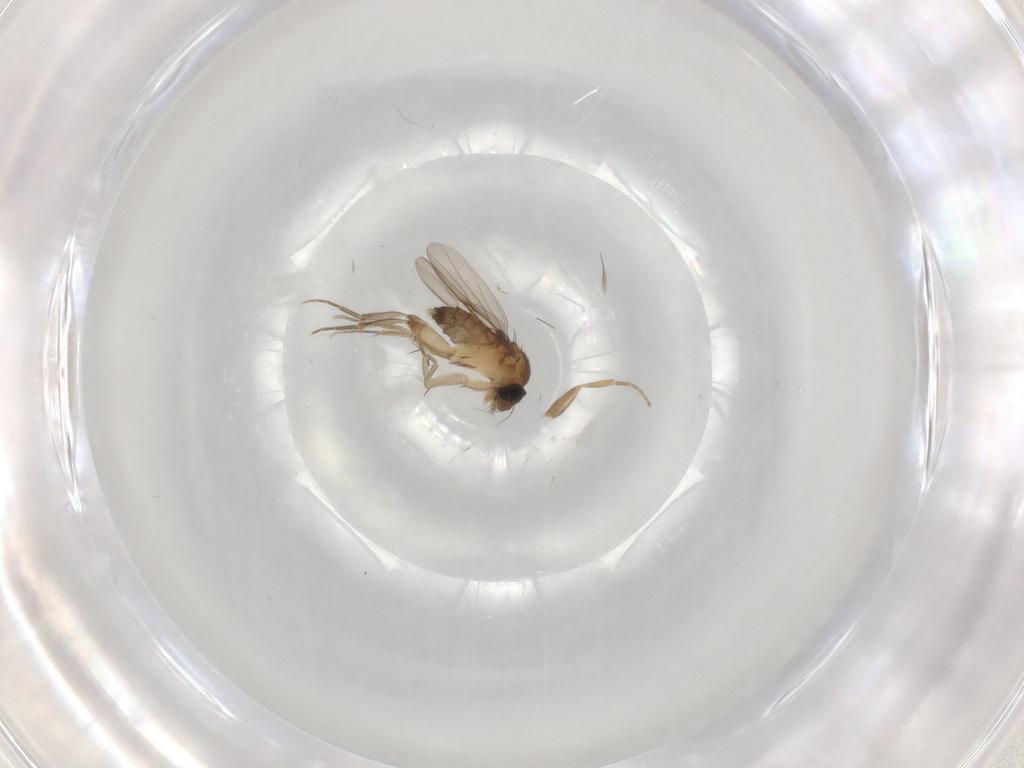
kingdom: Animalia
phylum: Arthropoda
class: Insecta
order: Diptera
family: Phoridae
